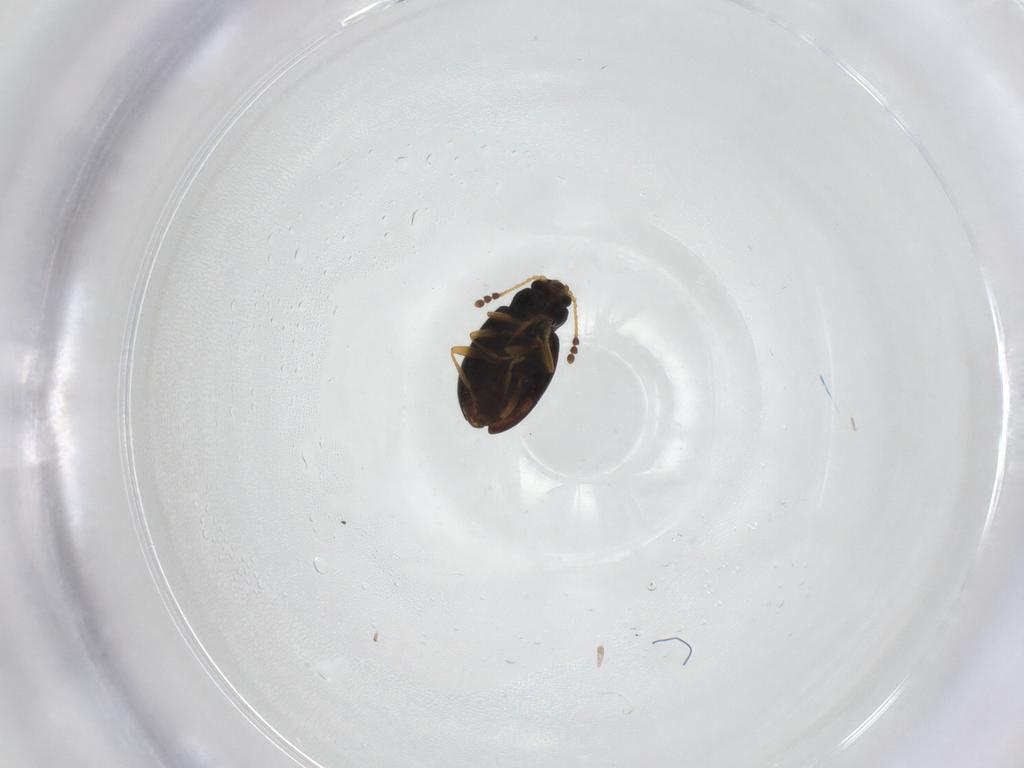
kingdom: Animalia
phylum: Arthropoda
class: Insecta
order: Coleoptera
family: Erotylidae
